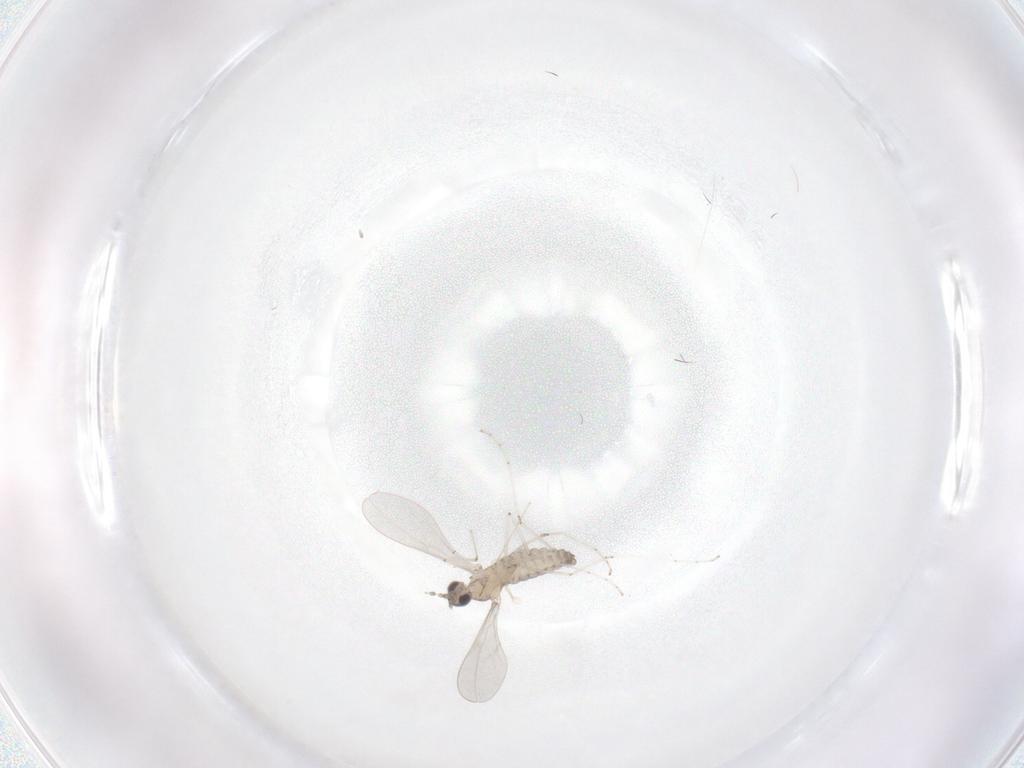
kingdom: Animalia
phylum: Arthropoda
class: Insecta
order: Diptera
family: Cecidomyiidae
